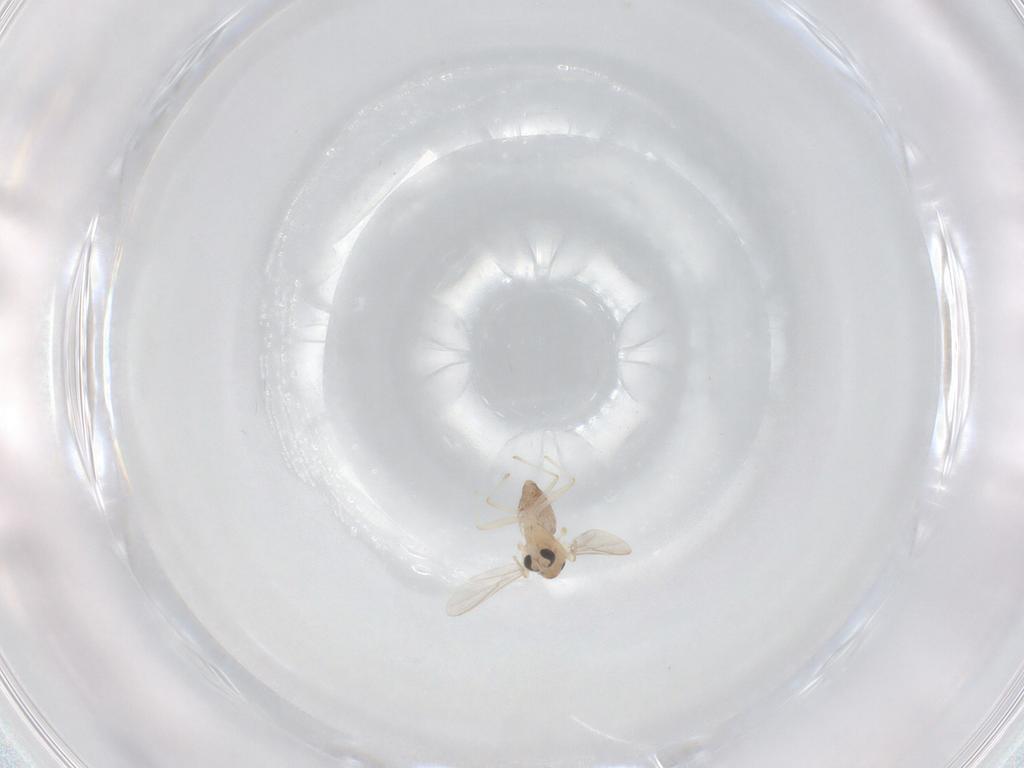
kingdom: Animalia
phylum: Arthropoda
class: Insecta
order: Diptera
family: Chironomidae
